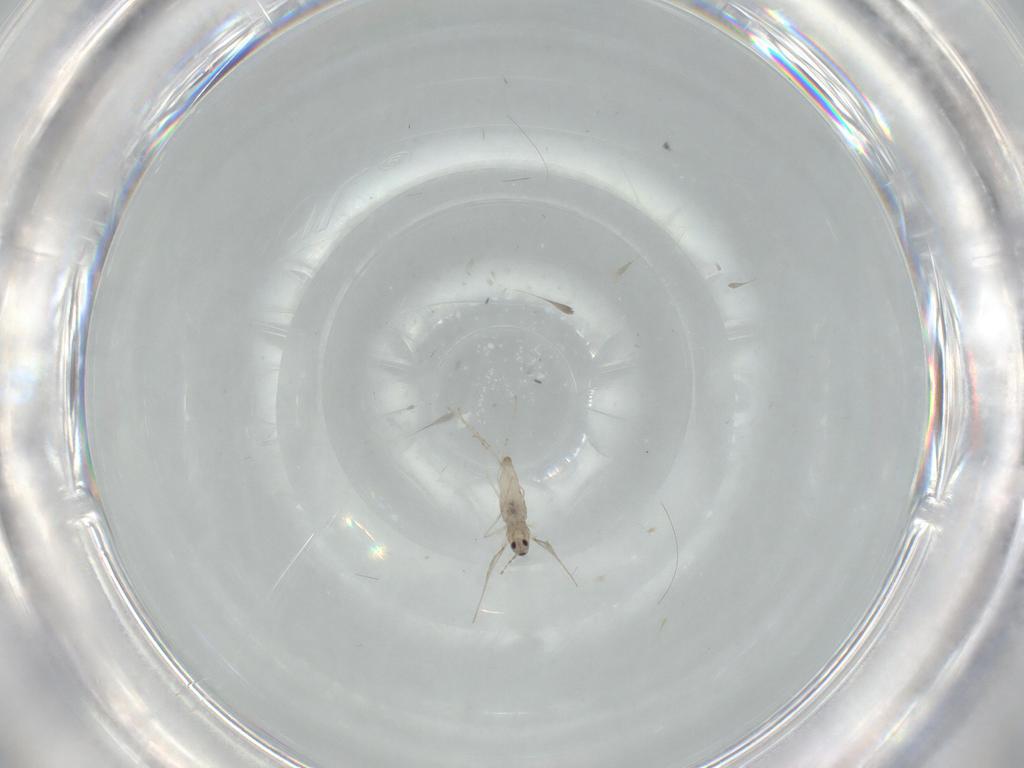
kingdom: Animalia
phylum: Arthropoda
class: Insecta
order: Diptera
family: Cecidomyiidae
